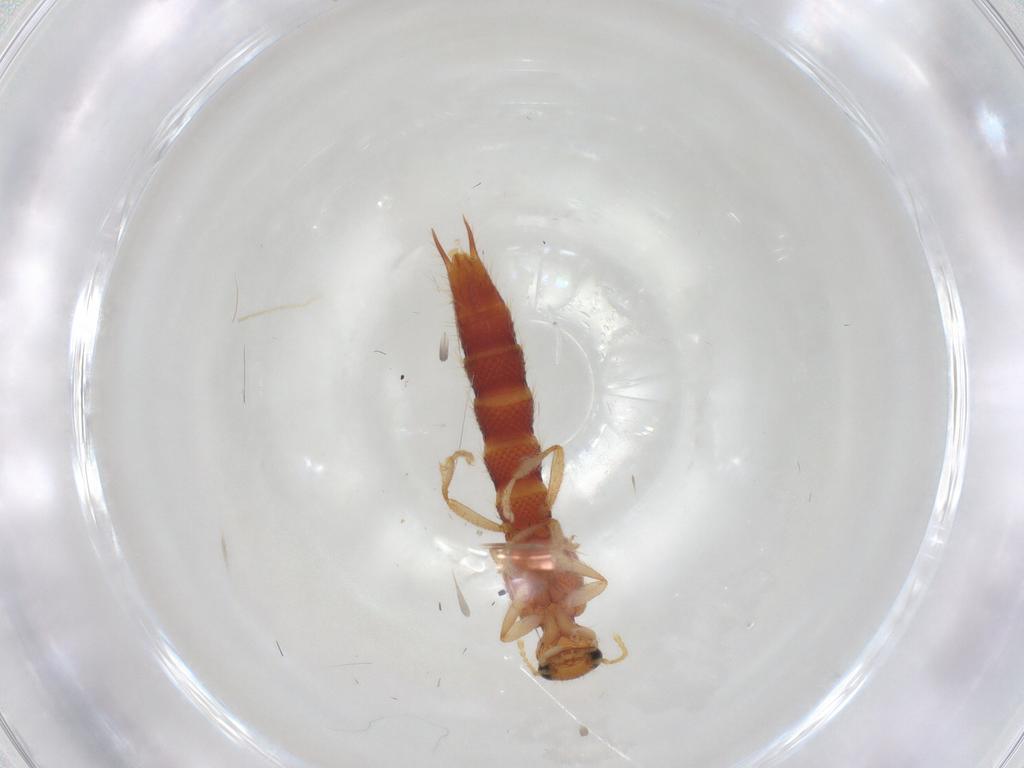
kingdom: Animalia
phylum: Arthropoda
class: Insecta
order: Coleoptera
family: Staphylinidae
